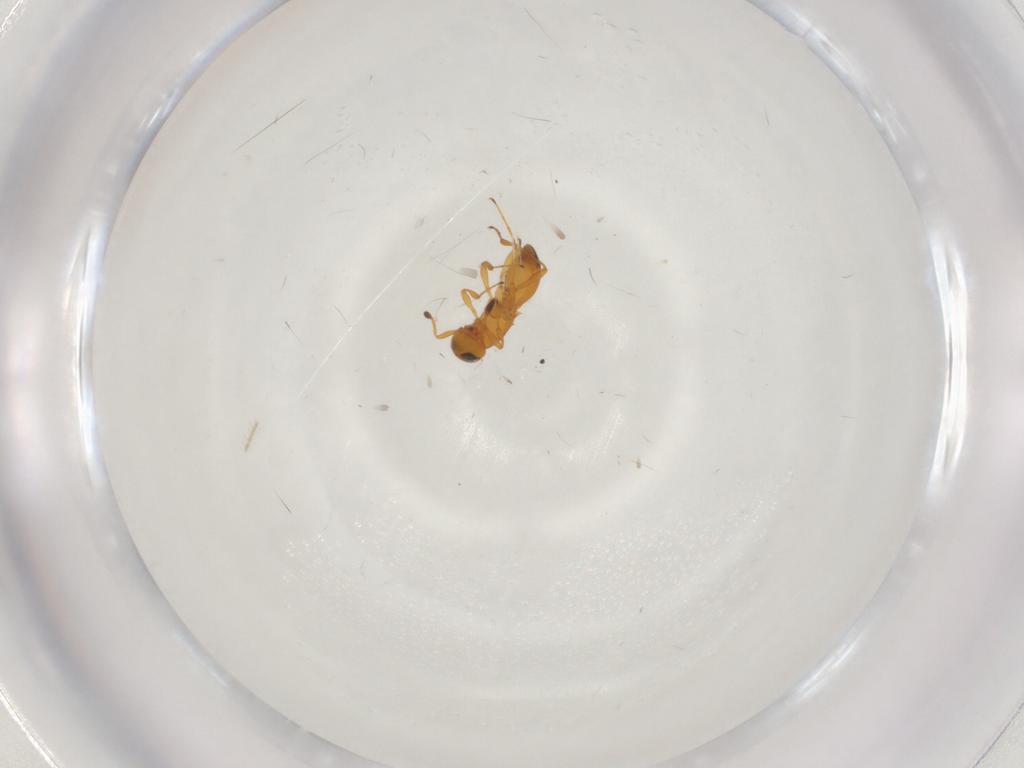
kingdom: Animalia
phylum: Arthropoda
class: Insecta
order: Hymenoptera
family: Platygastridae
